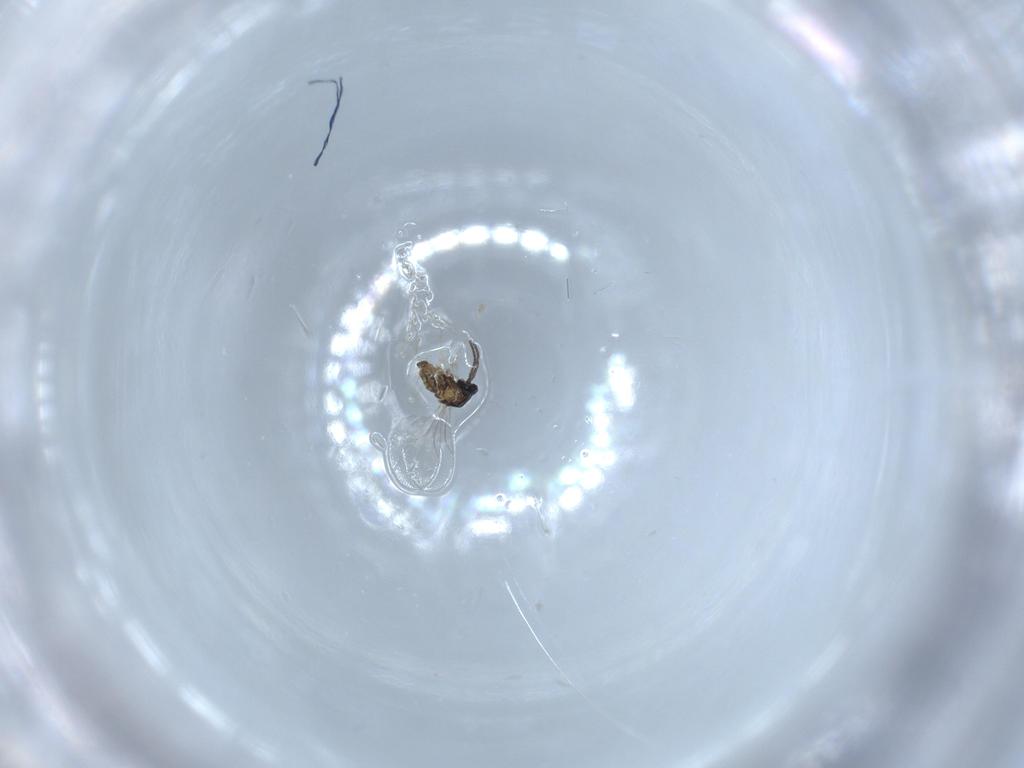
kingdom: Animalia
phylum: Arthropoda
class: Insecta
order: Diptera
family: Cecidomyiidae
